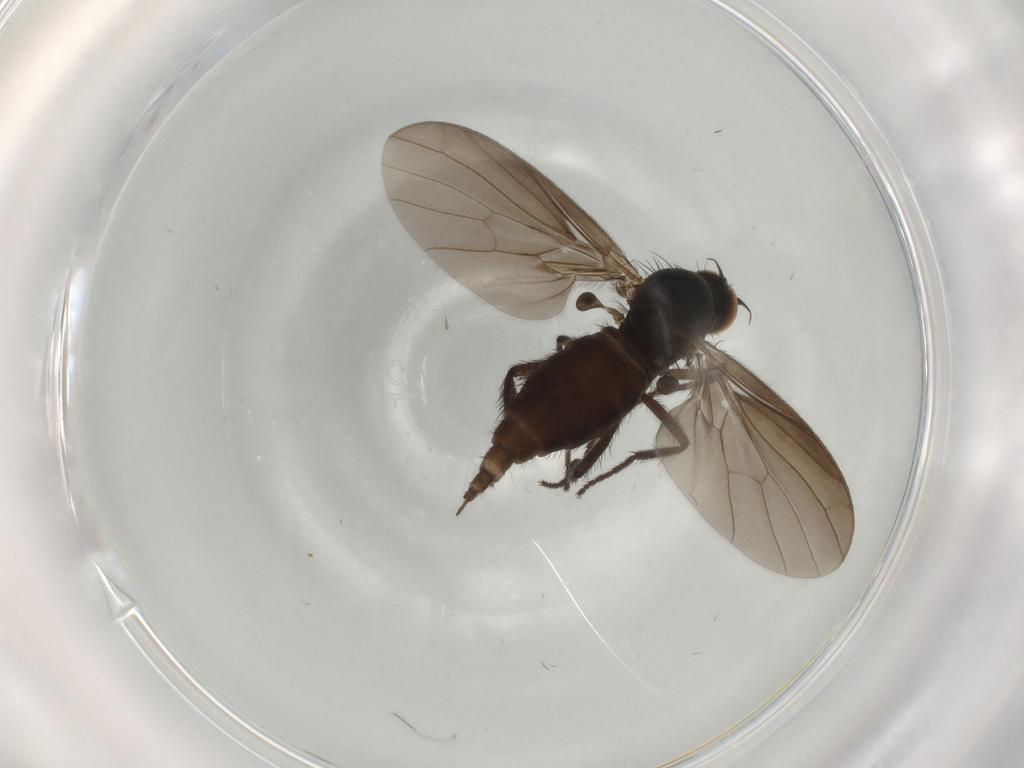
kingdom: Animalia
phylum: Arthropoda
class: Insecta
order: Diptera
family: Empididae
